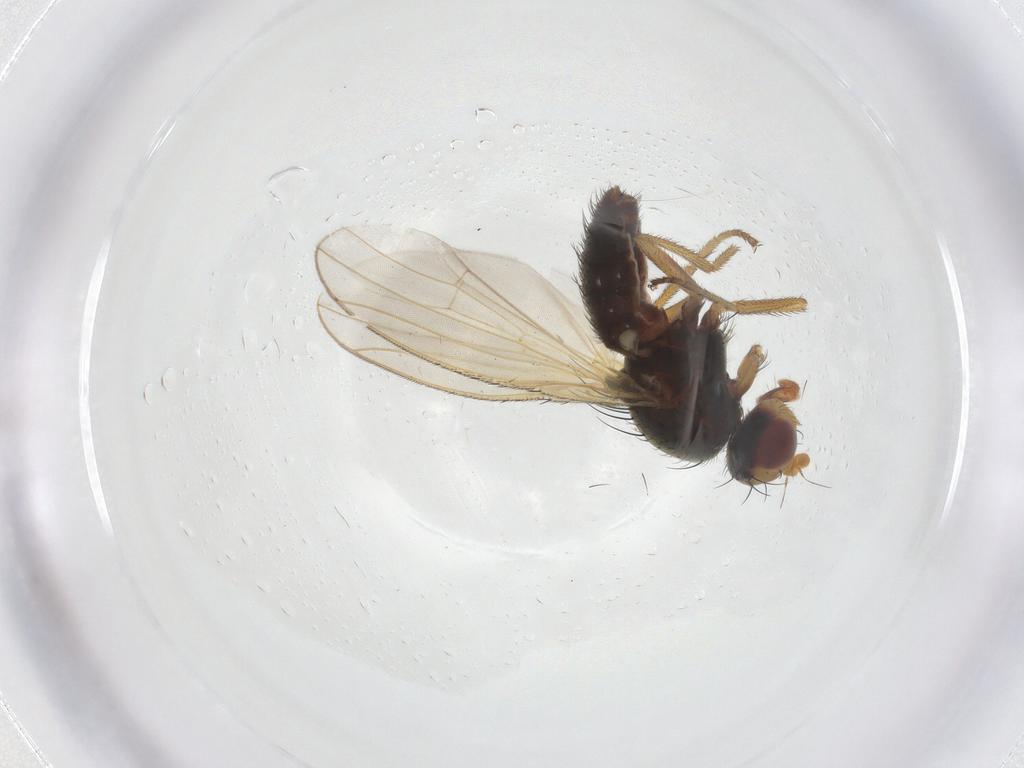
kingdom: Animalia
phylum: Arthropoda
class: Insecta
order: Diptera
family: Heleomyzidae
